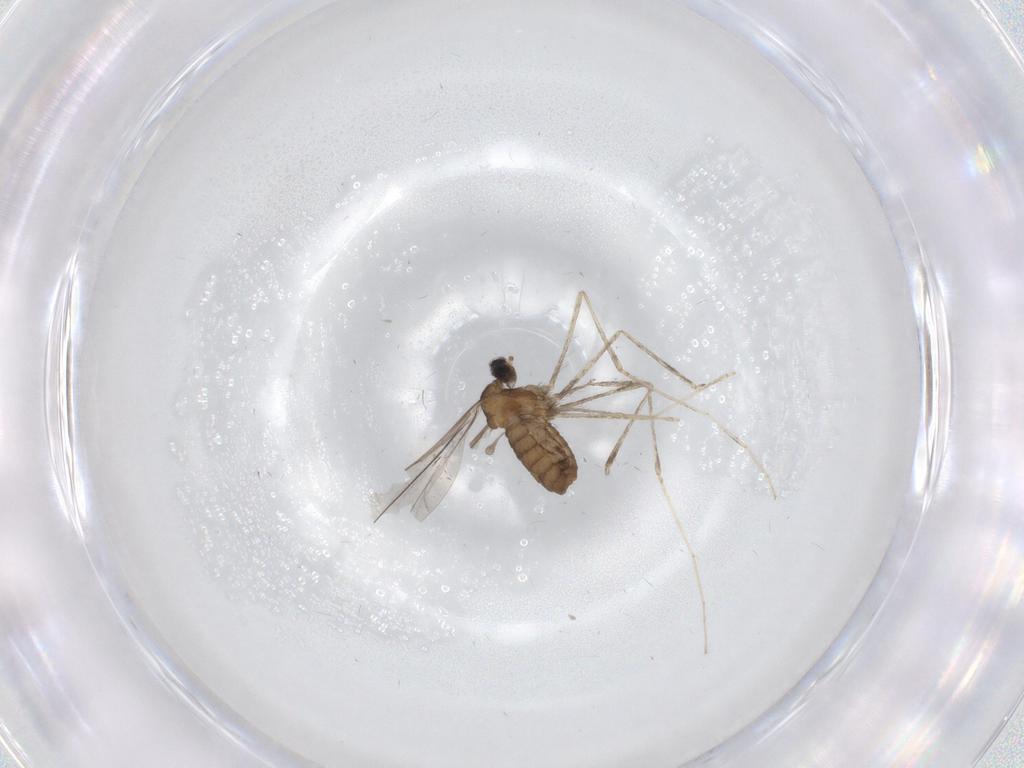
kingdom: Animalia
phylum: Arthropoda
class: Insecta
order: Diptera
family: Cecidomyiidae
